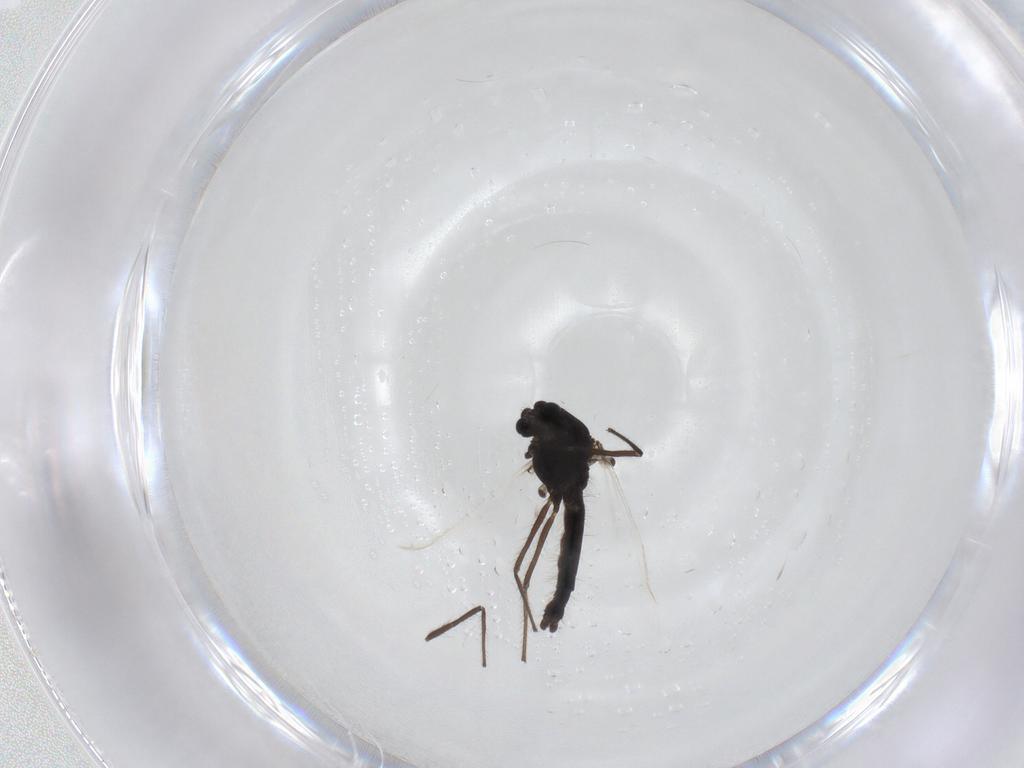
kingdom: Animalia
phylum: Arthropoda
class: Insecta
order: Diptera
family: Chironomidae
